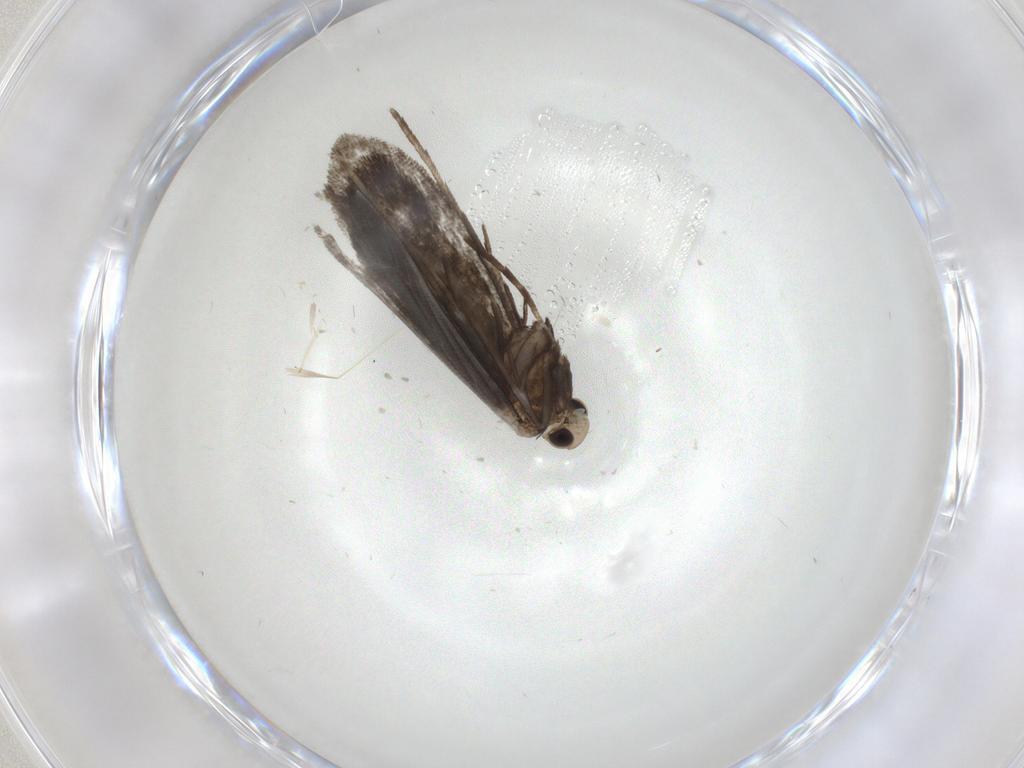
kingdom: Animalia
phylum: Arthropoda
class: Insecta
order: Lepidoptera
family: Nymphalidae
